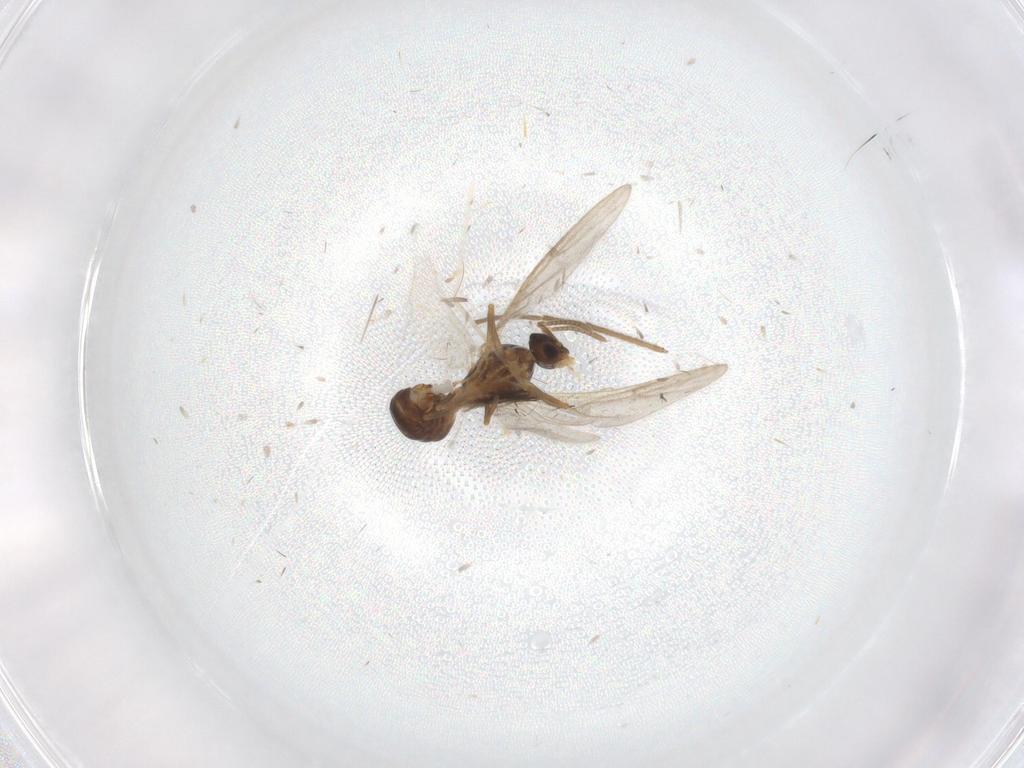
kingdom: Animalia
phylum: Arthropoda
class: Insecta
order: Hymenoptera
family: Formicidae
